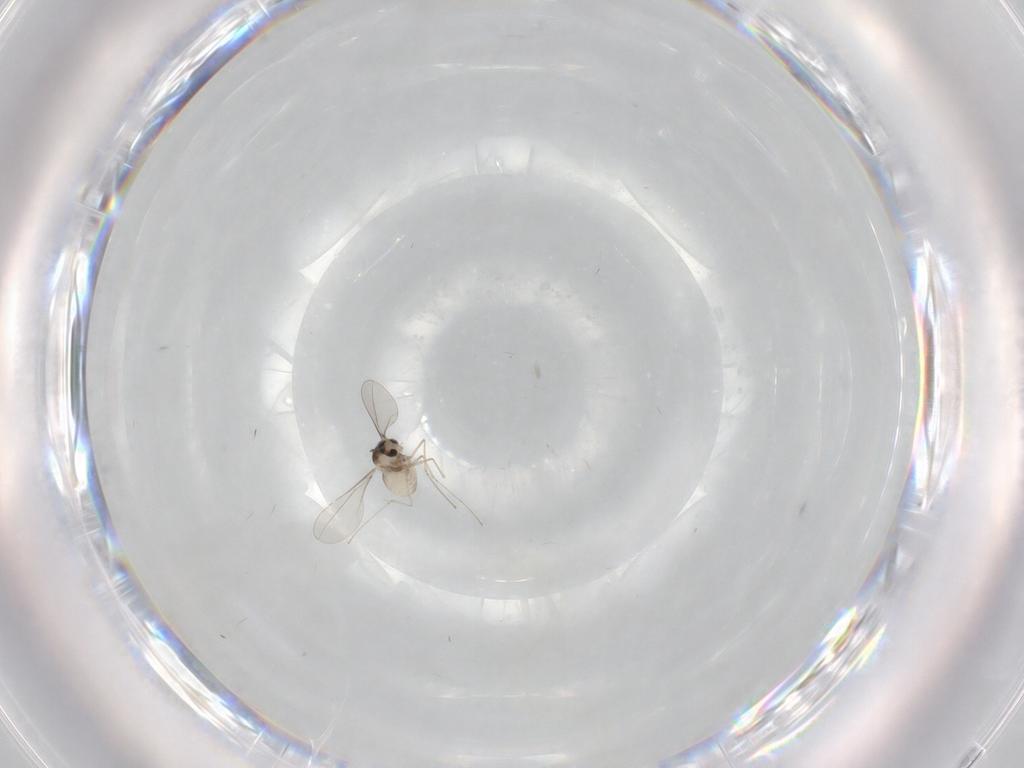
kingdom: Animalia
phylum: Arthropoda
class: Insecta
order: Diptera
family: Cecidomyiidae
